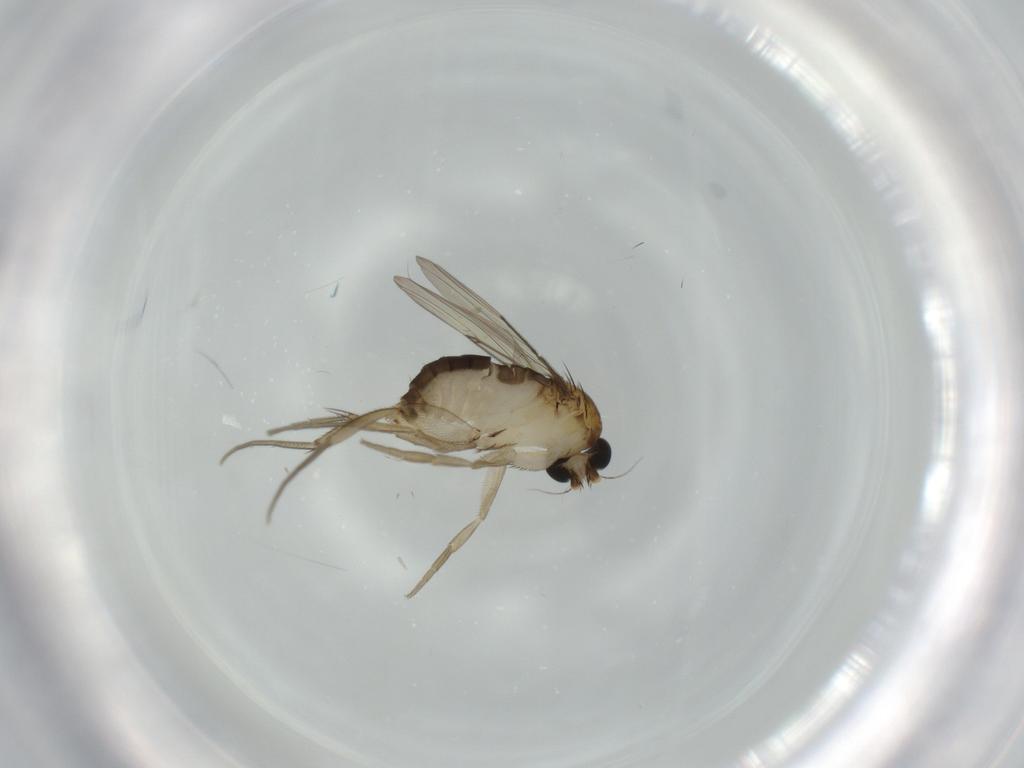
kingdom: Animalia
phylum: Arthropoda
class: Insecta
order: Diptera
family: Phoridae
